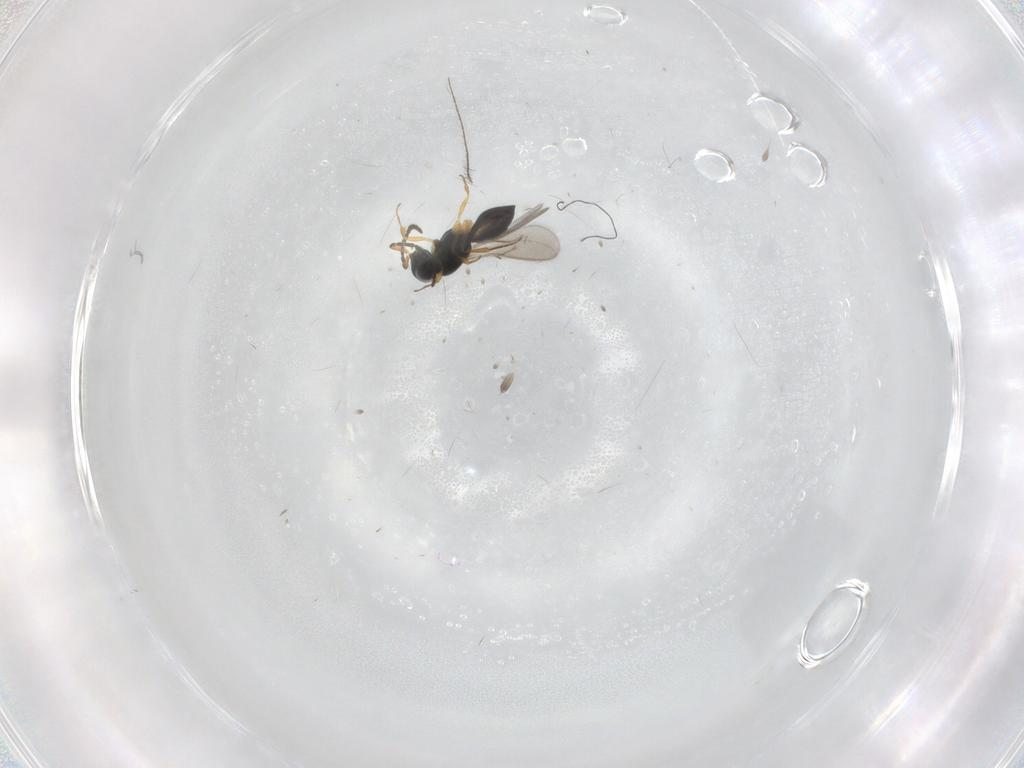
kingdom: Animalia
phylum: Arthropoda
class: Insecta
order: Hymenoptera
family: Scelionidae
